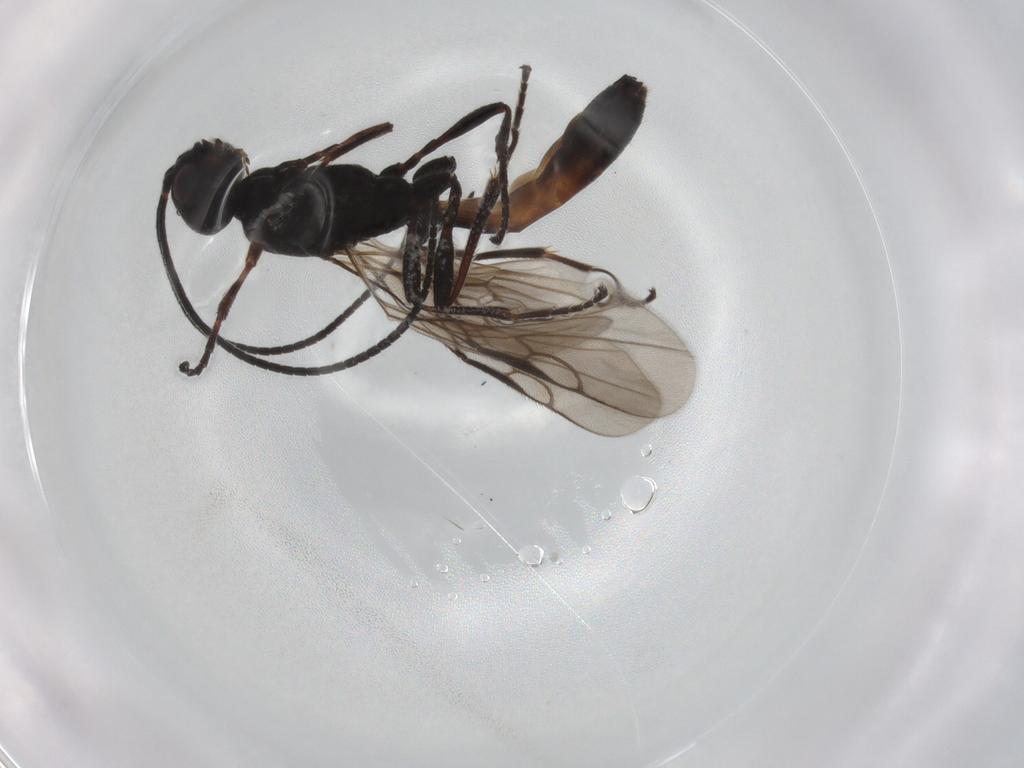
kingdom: Animalia
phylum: Arthropoda
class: Insecta
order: Hymenoptera
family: Braconidae
